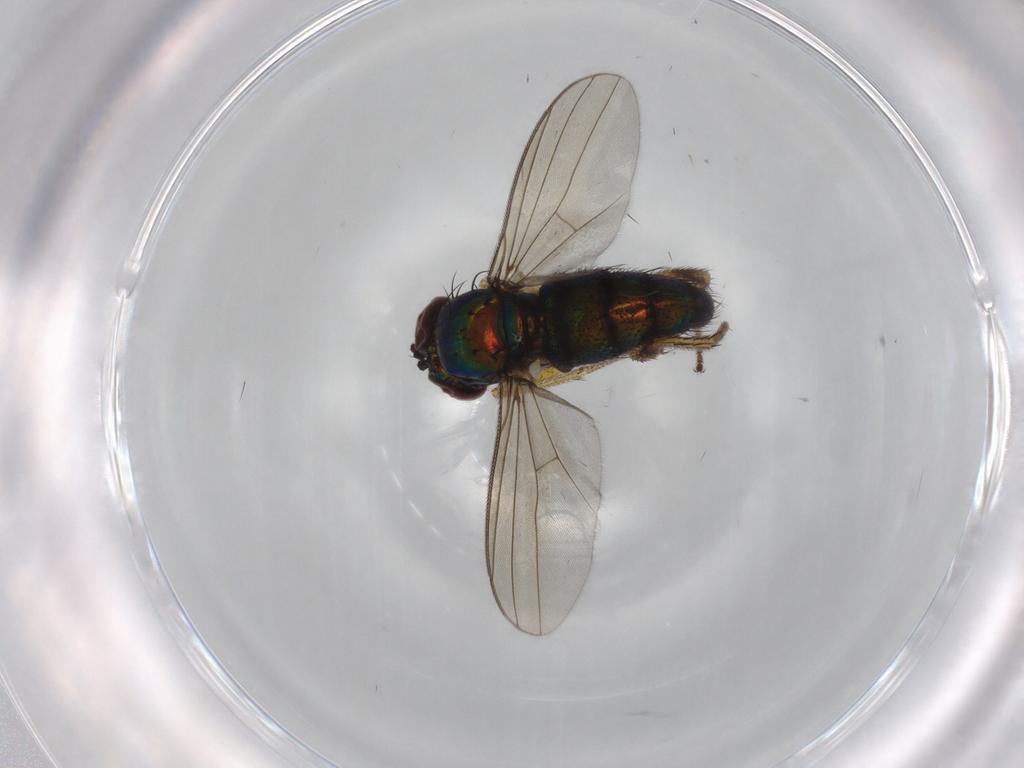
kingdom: Animalia
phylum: Arthropoda
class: Insecta
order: Diptera
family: Dolichopodidae
